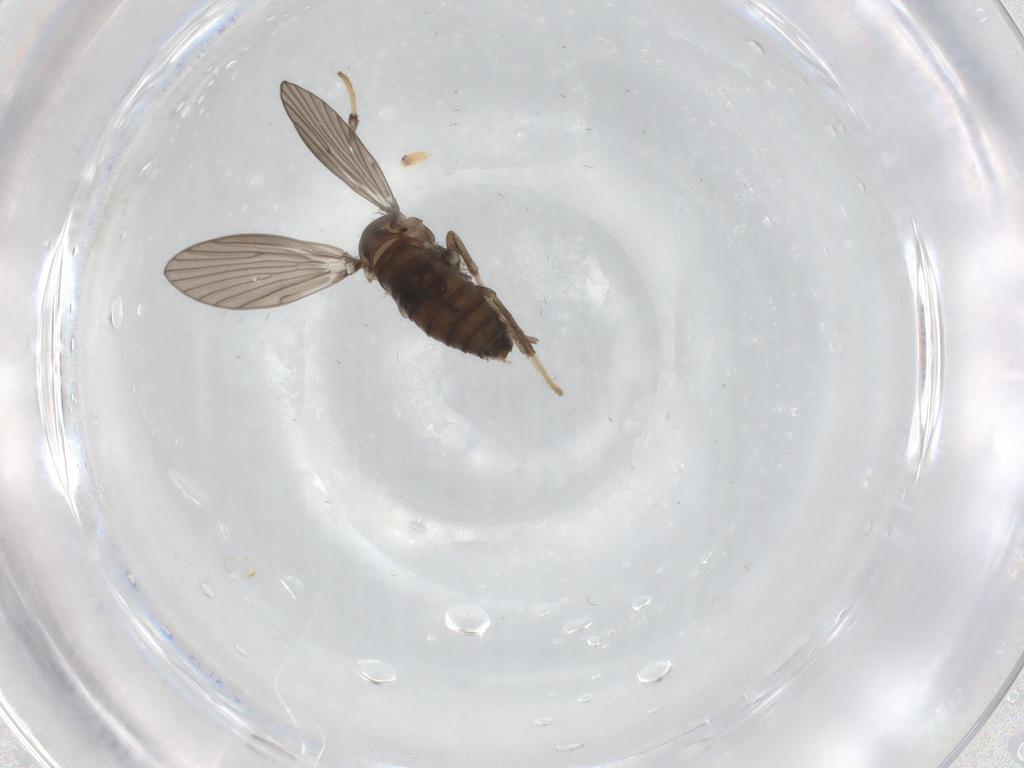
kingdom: Animalia
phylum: Arthropoda
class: Insecta
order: Diptera
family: Psychodidae
